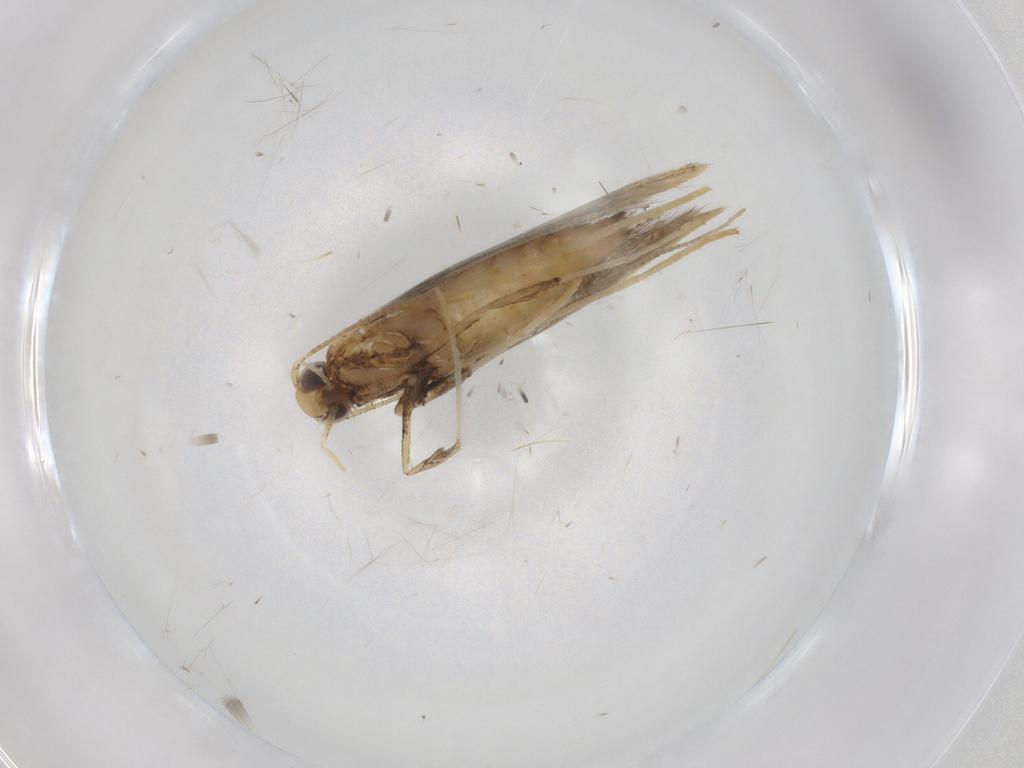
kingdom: Animalia
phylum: Arthropoda
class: Insecta
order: Lepidoptera
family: Gracillariidae
